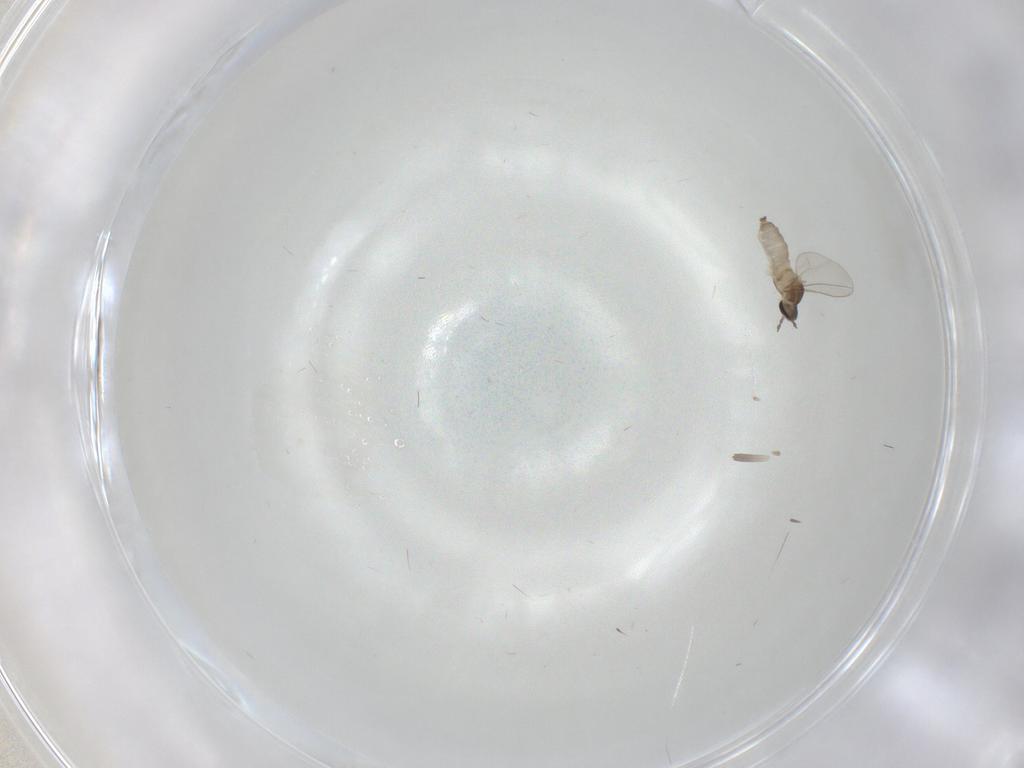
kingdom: Animalia
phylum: Arthropoda
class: Insecta
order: Diptera
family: Cecidomyiidae
